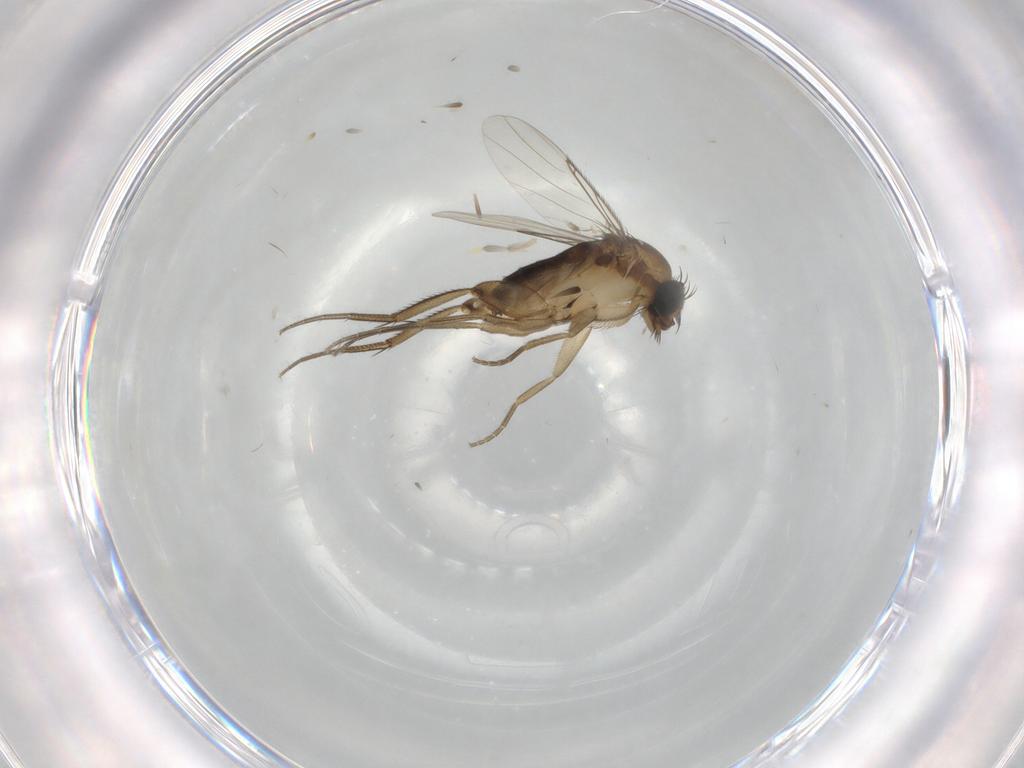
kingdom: Animalia
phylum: Arthropoda
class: Insecta
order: Diptera
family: Phoridae
